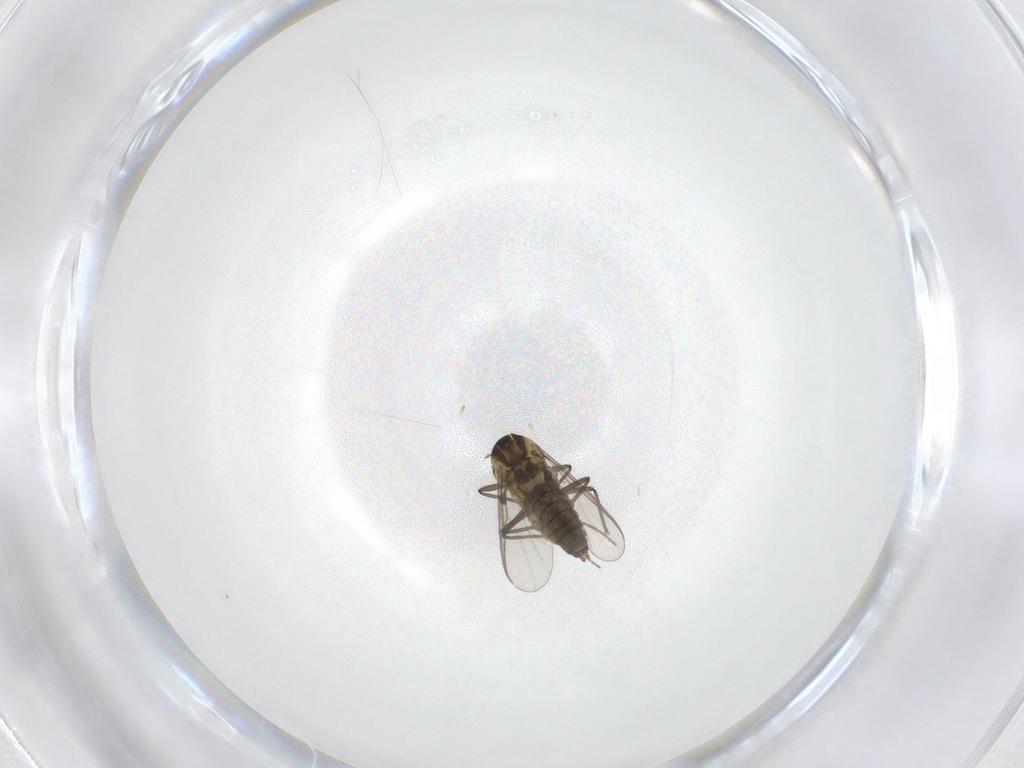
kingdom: Animalia
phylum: Arthropoda
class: Insecta
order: Diptera
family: Chironomidae
